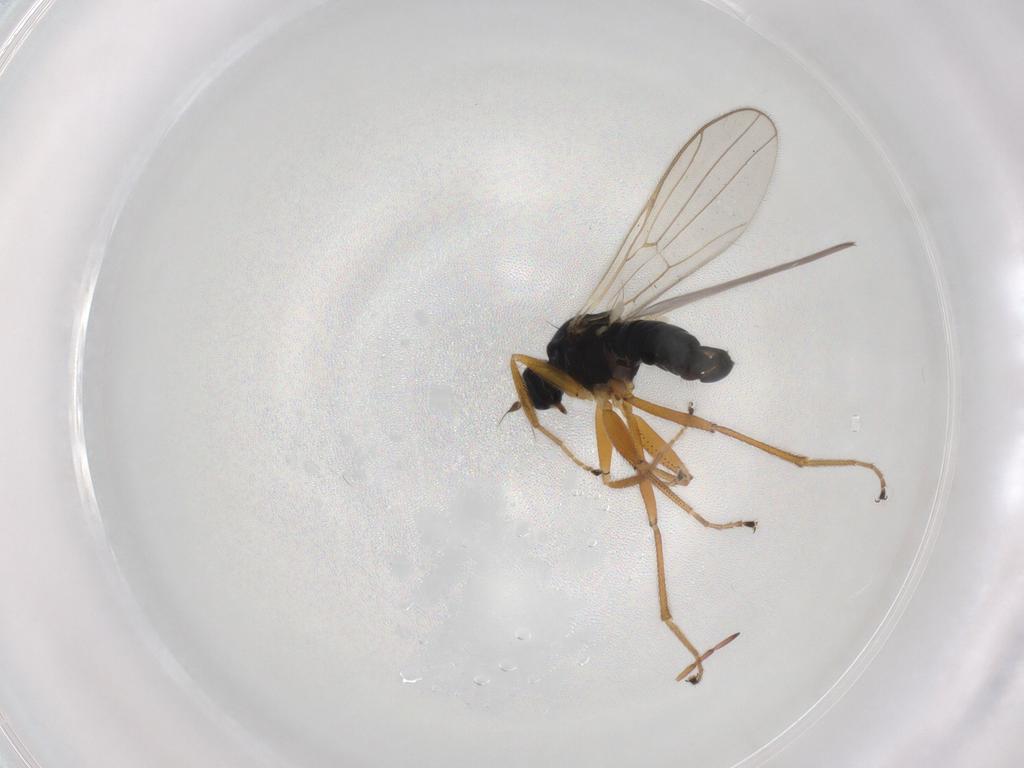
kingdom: Animalia
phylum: Arthropoda
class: Insecta
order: Diptera
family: Hybotidae
